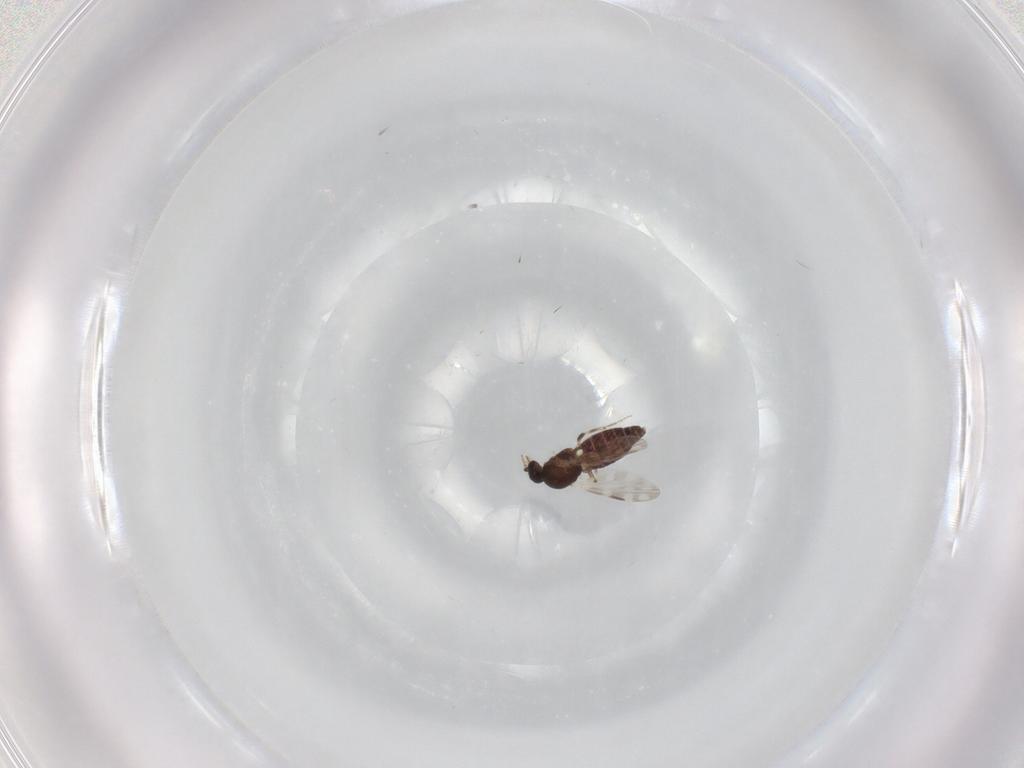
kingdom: Animalia
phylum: Arthropoda
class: Insecta
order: Diptera
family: Ceratopogonidae
